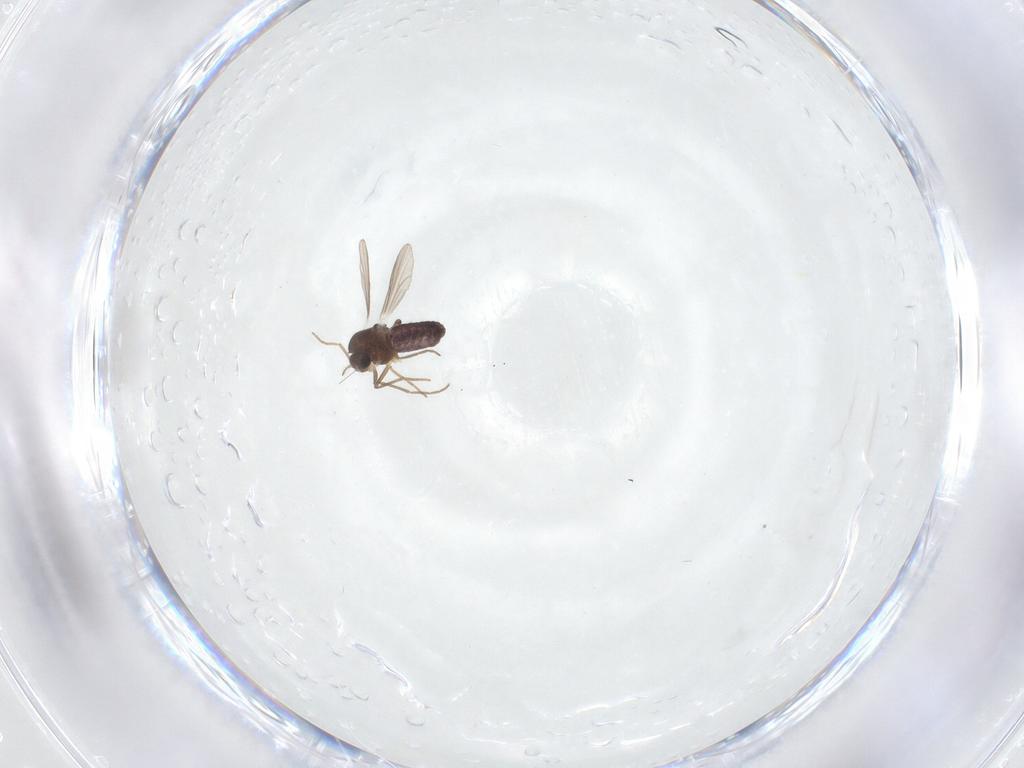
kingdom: Animalia
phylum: Arthropoda
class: Insecta
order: Diptera
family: Chironomidae
